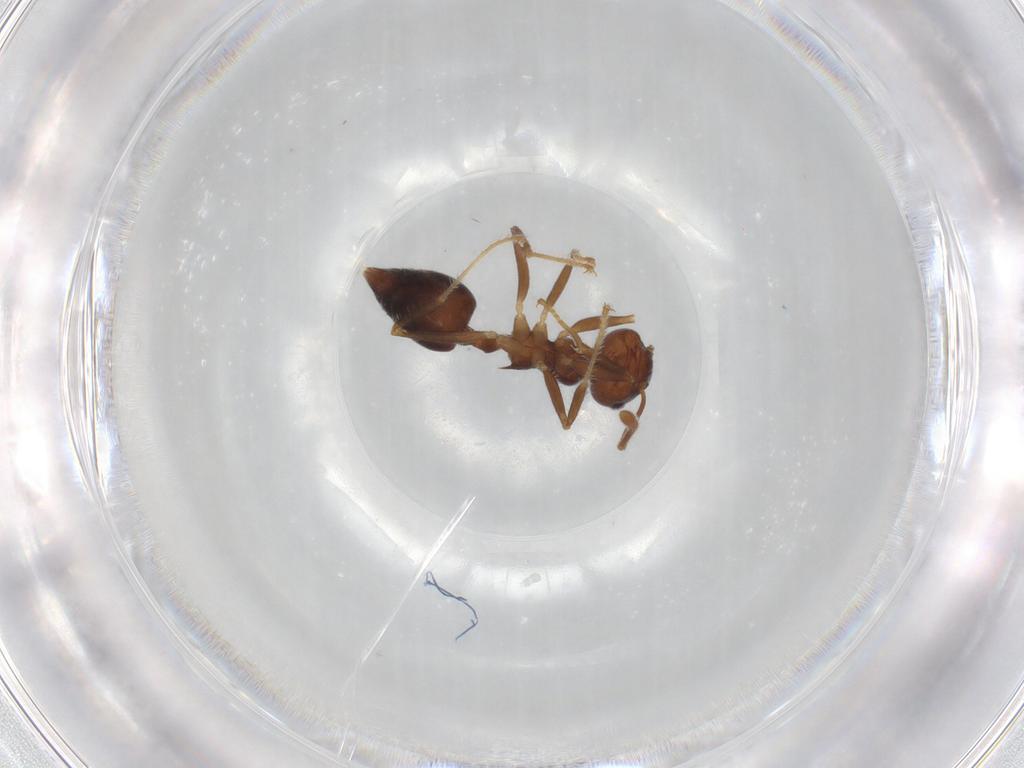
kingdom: Animalia
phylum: Arthropoda
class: Insecta
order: Hymenoptera
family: Formicidae
